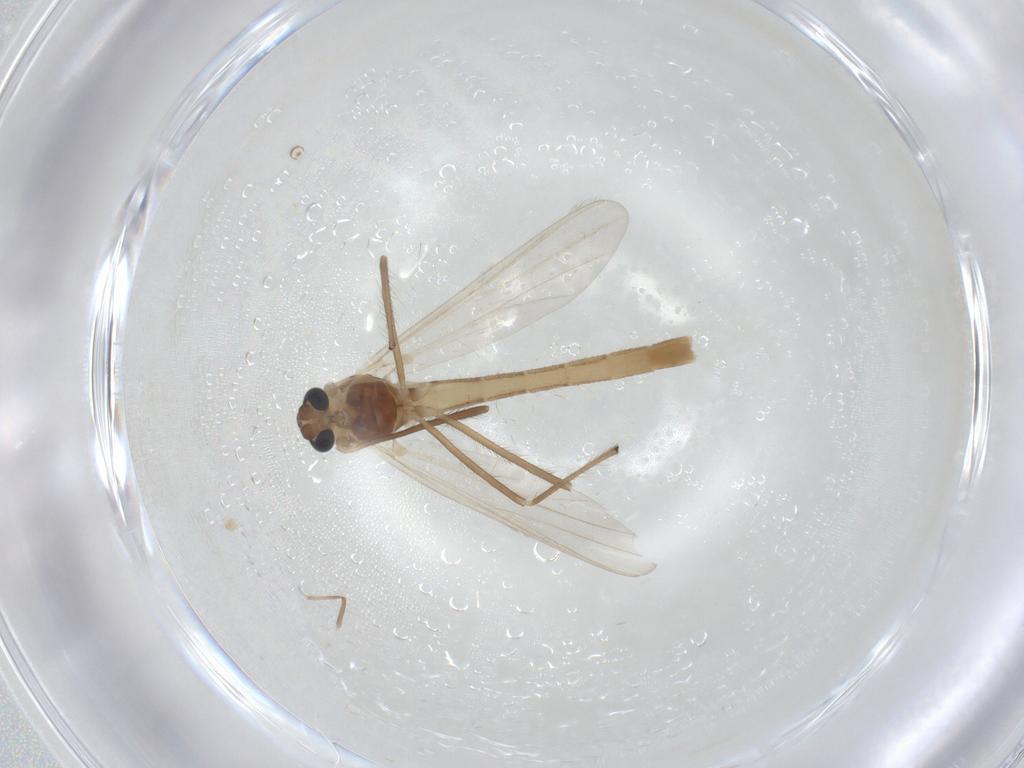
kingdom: Animalia
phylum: Arthropoda
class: Insecta
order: Diptera
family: Chironomidae
